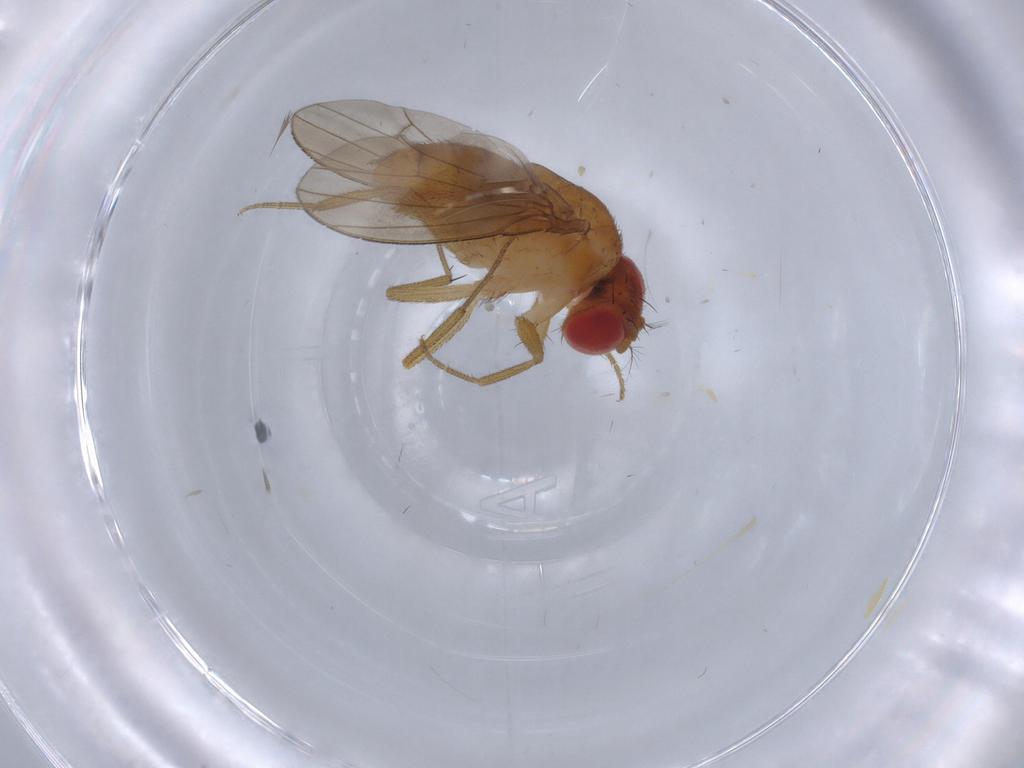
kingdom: Animalia
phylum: Arthropoda
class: Insecta
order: Diptera
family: Drosophilidae
